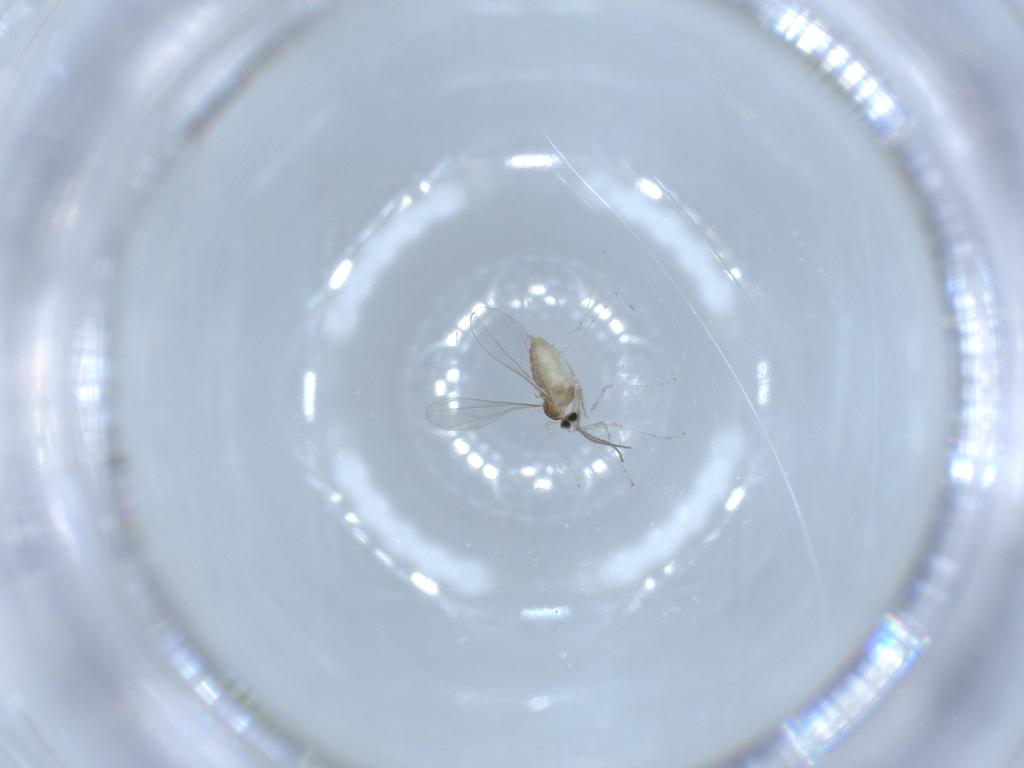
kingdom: Animalia
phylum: Arthropoda
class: Insecta
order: Diptera
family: Cecidomyiidae
